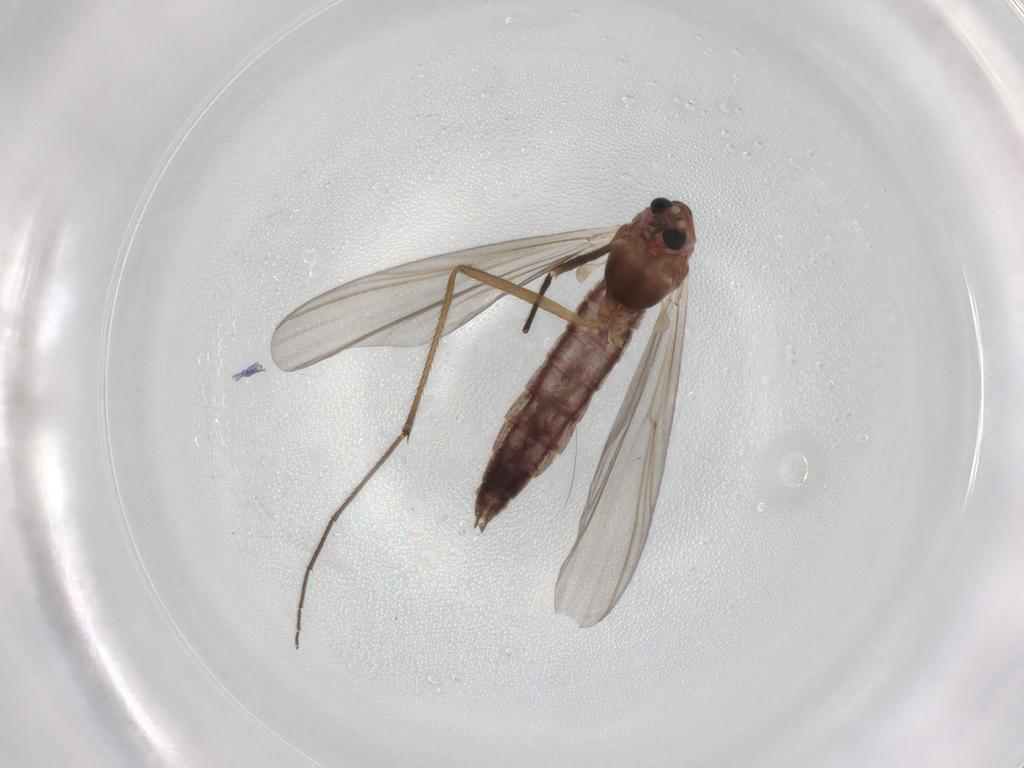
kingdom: Animalia
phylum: Arthropoda
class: Insecta
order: Diptera
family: Chironomidae
